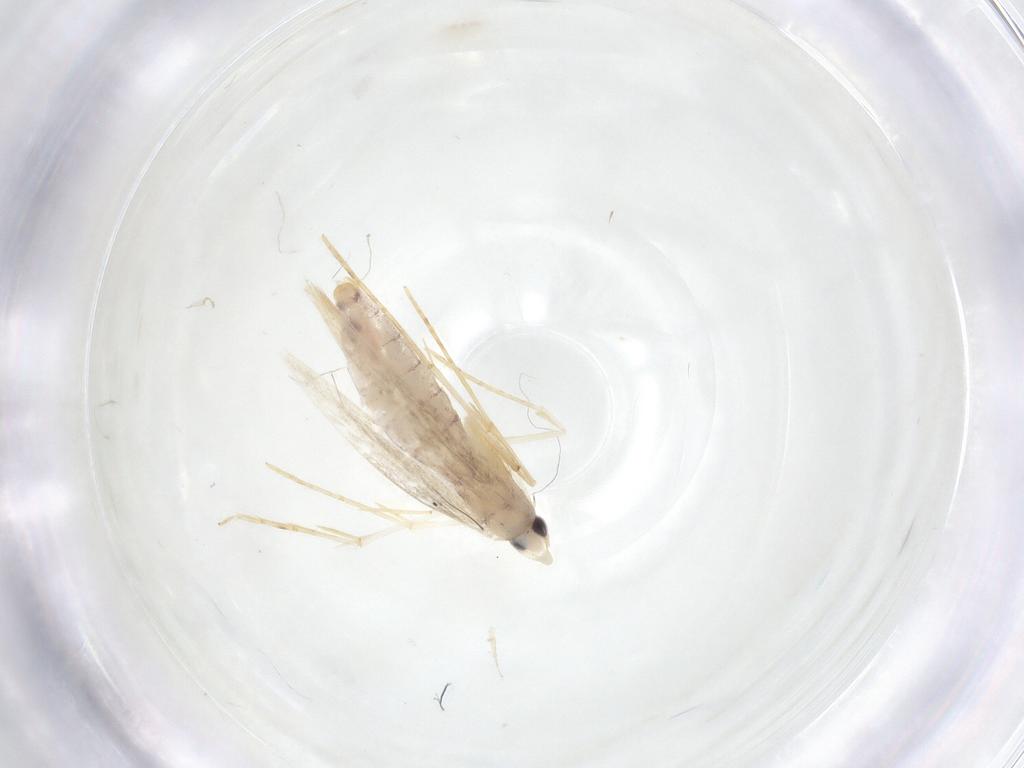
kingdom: Animalia
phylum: Arthropoda
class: Insecta
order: Lepidoptera
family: Tineidae
